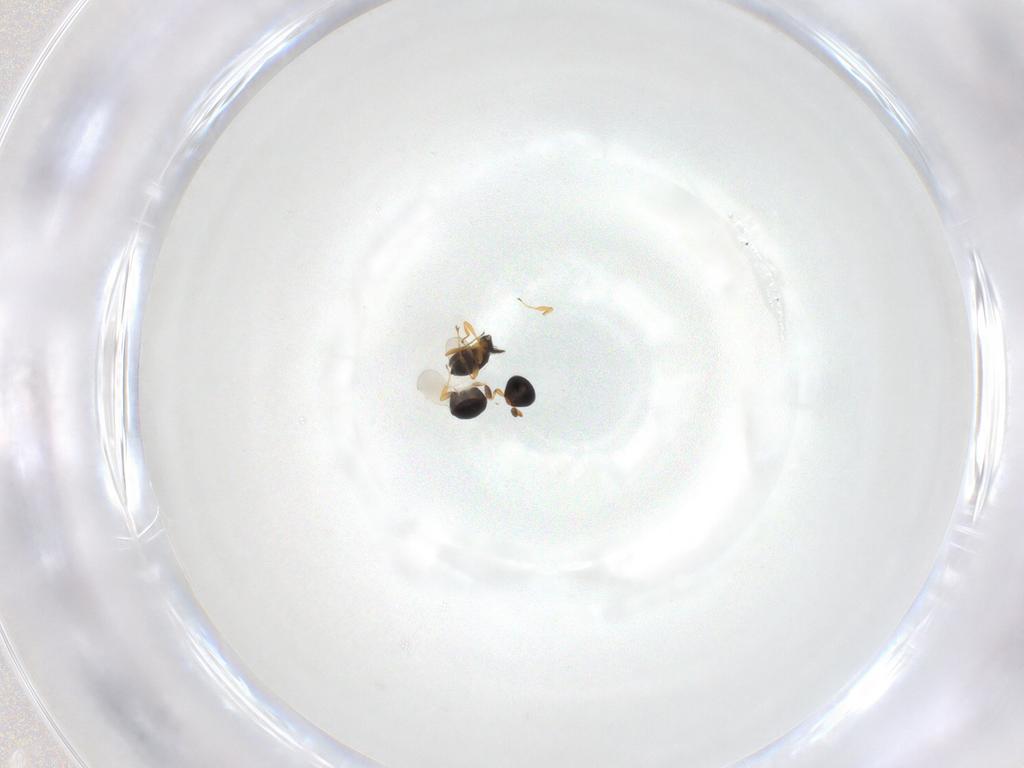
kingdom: Animalia
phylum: Arthropoda
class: Insecta
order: Hymenoptera
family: Platygastridae
